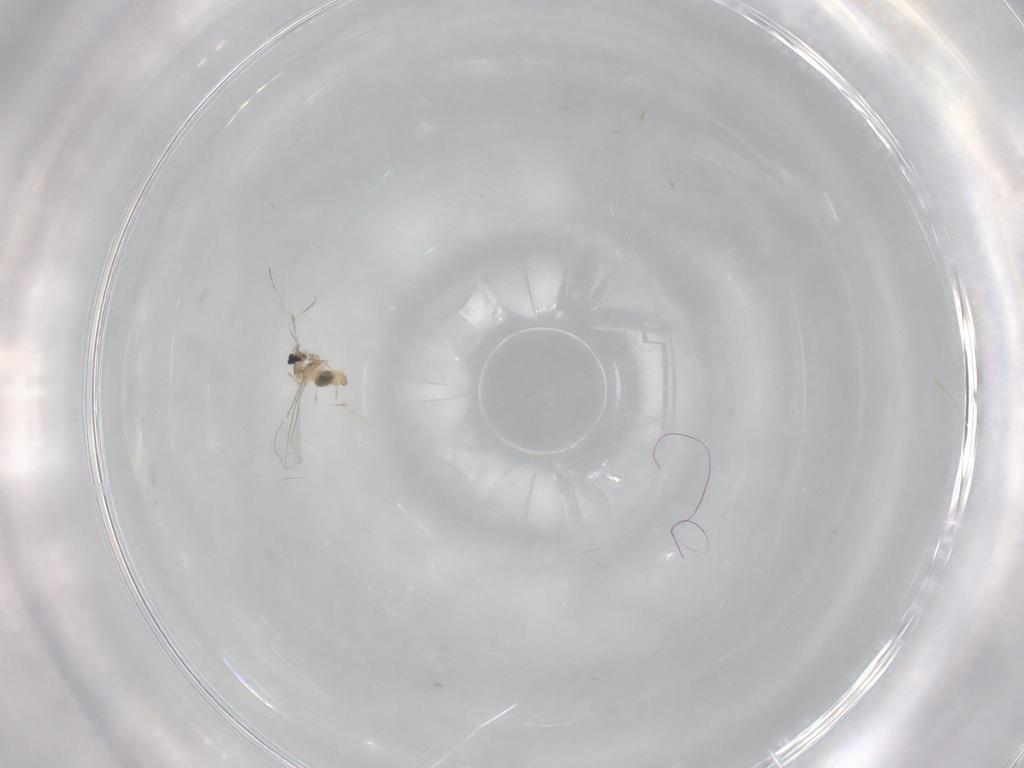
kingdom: Animalia
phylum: Arthropoda
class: Insecta
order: Diptera
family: Cecidomyiidae
